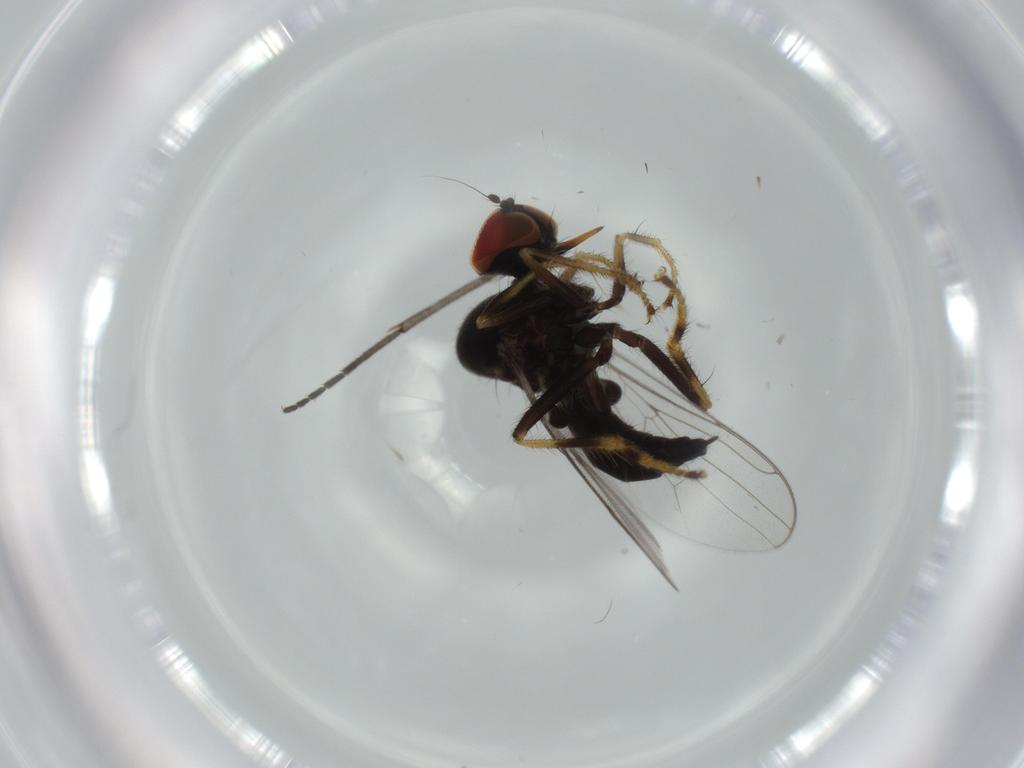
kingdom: Animalia
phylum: Arthropoda
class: Insecta
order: Diptera
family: Hybotidae
